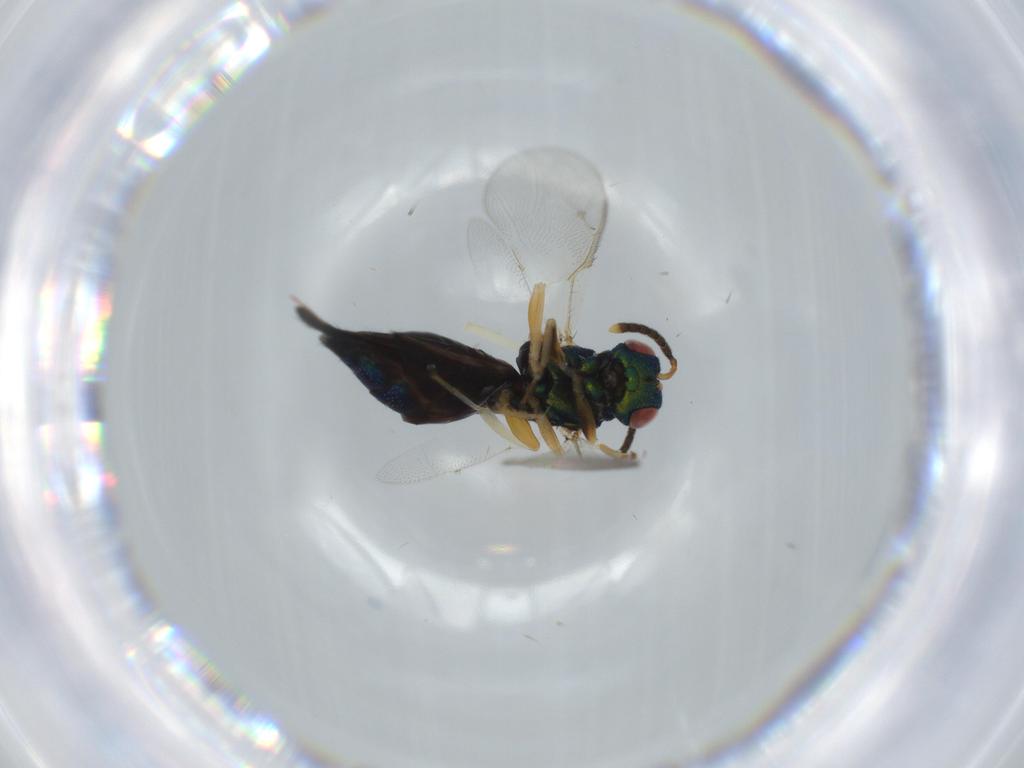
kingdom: Animalia
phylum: Arthropoda
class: Insecta
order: Hymenoptera
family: Pteromalidae
